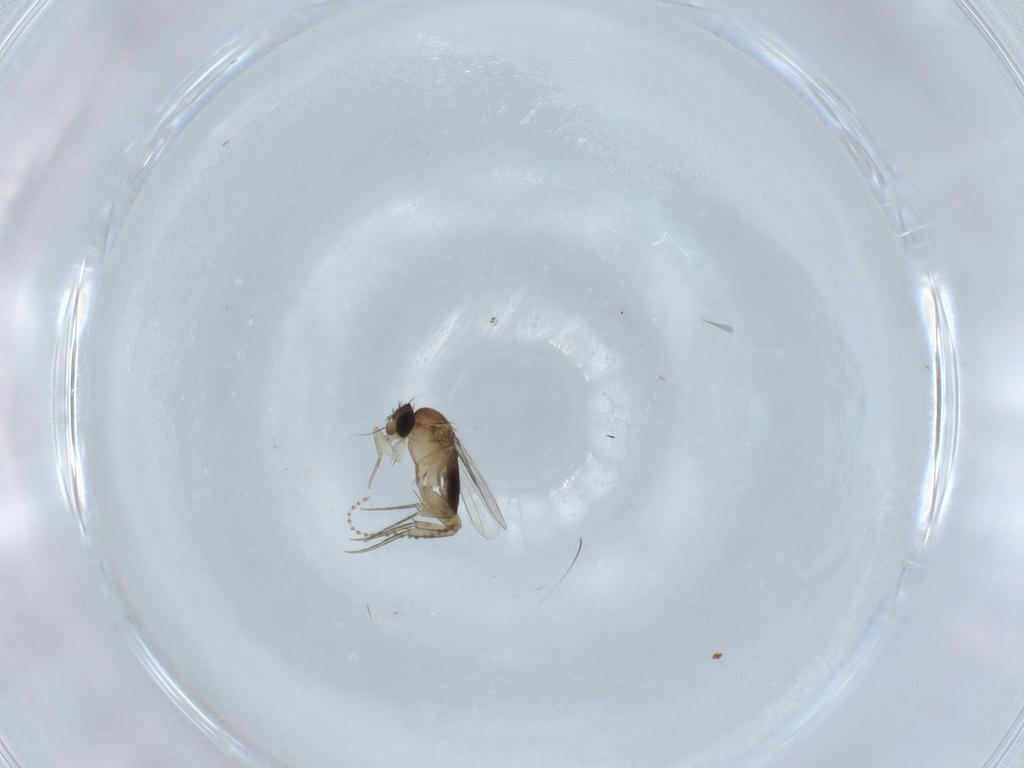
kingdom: Animalia
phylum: Arthropoda
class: Insecta
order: Diptera
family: Phoridae
